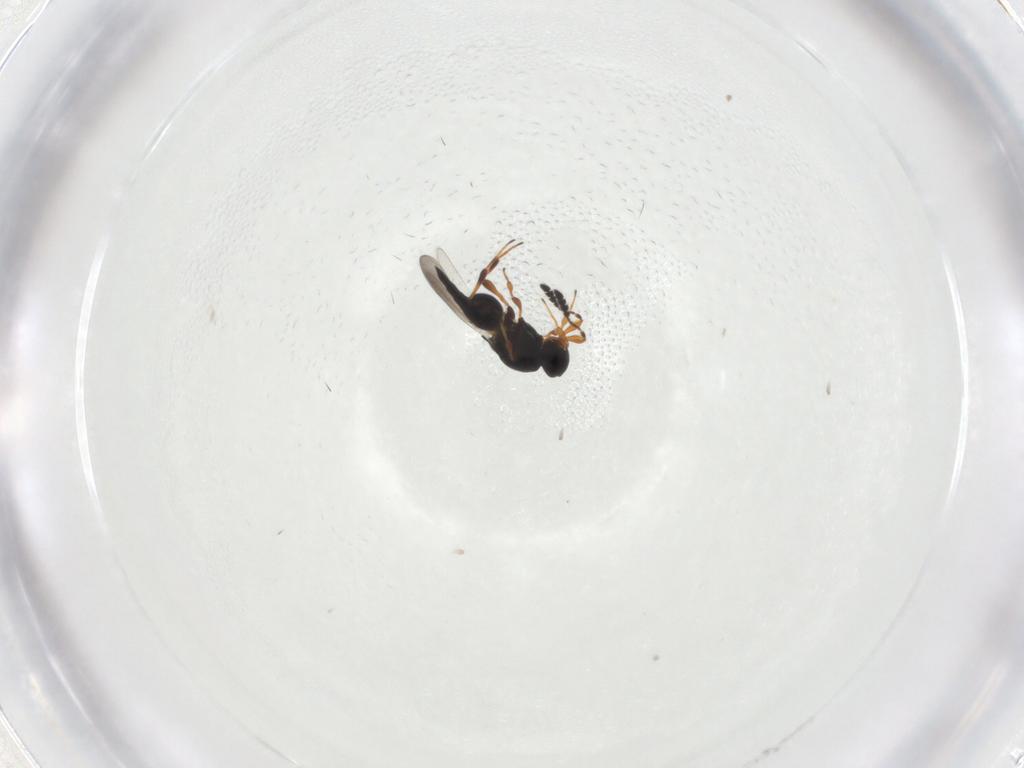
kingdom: Animalia
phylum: Arthropoda
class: Insecta
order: Hymenoptera
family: Platygastridae
